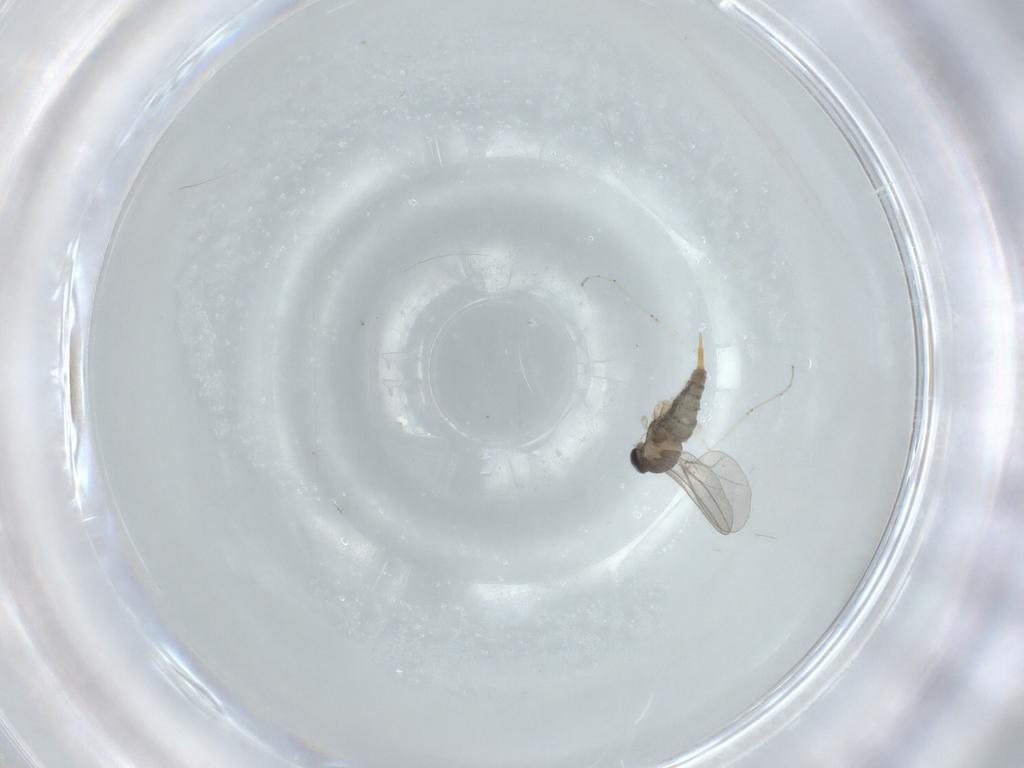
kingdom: Animalia
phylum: Arthropoda
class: Insecta
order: Diptera
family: Cecidomyiidae
